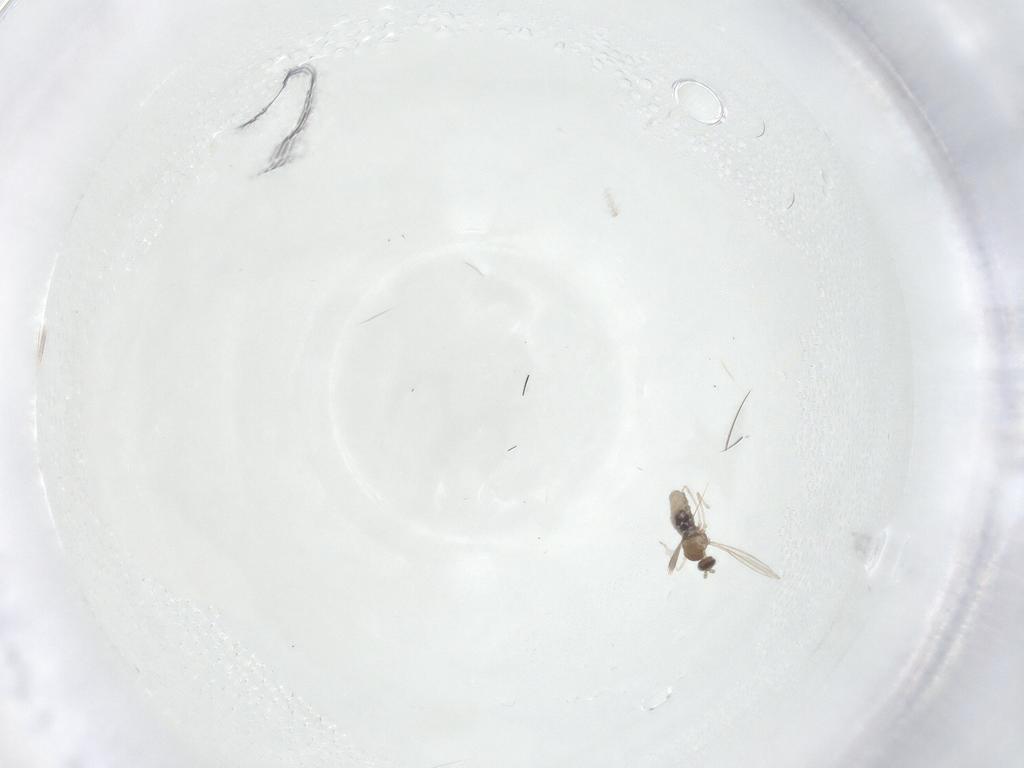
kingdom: Animalia
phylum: Arthropoda
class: Insecta
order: Diptera
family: Cecidomyiidae
